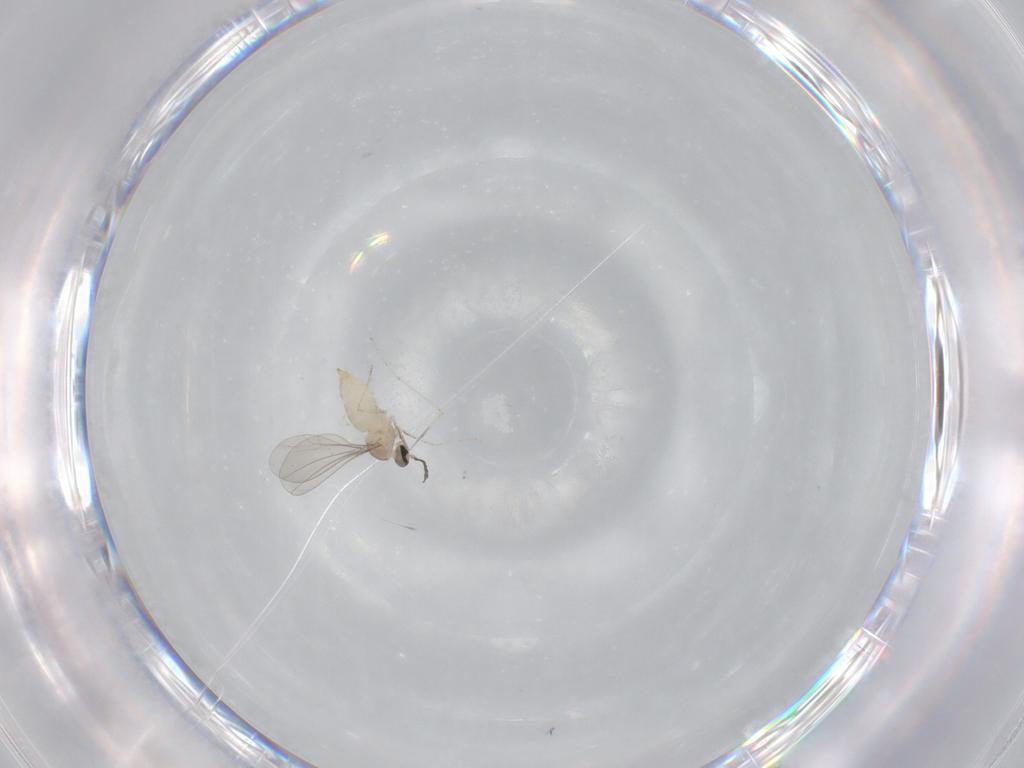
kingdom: Animalia
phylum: Arthropoda
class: Insecta
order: Diptera
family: Cecidomyiidae
